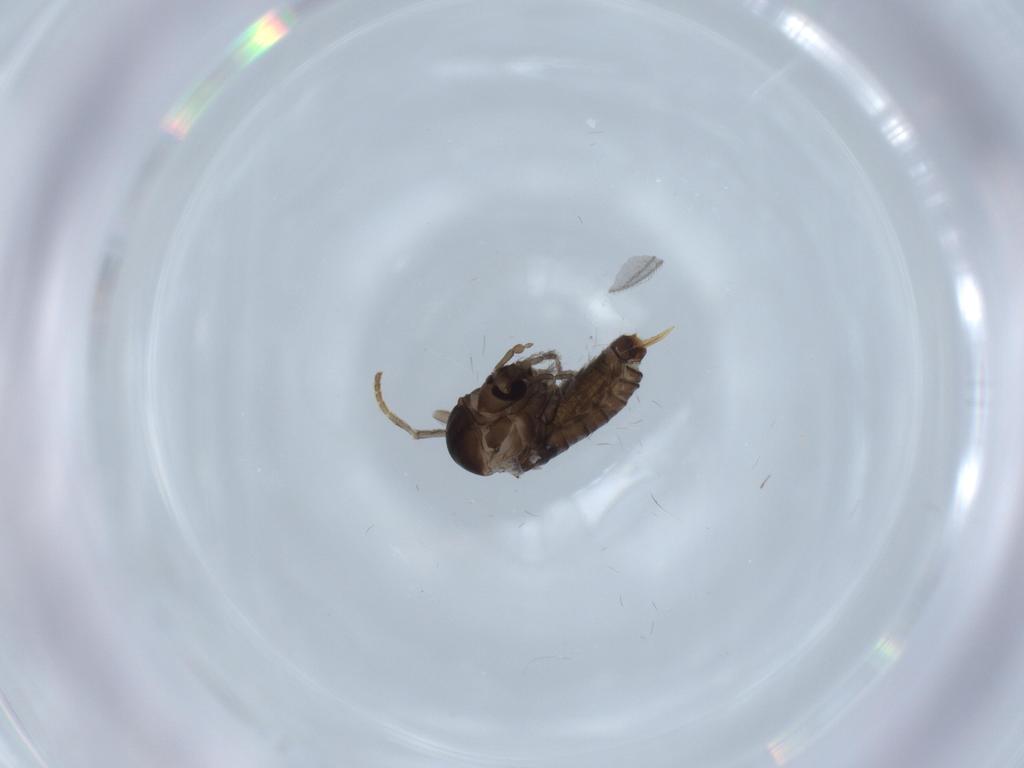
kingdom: Animalia
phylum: Arthropoda
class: Insecta
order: Diptera
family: Psychodidae
